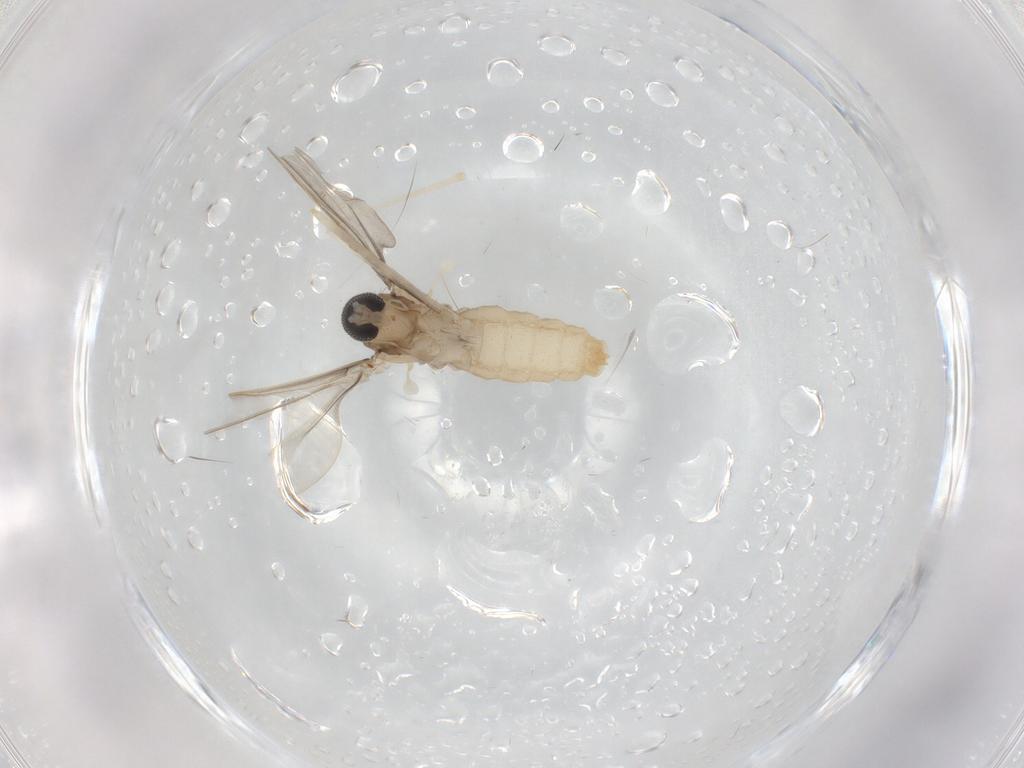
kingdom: Animalia
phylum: Arthropoda
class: Insecta
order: Diptera
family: Cecidomyiidae
